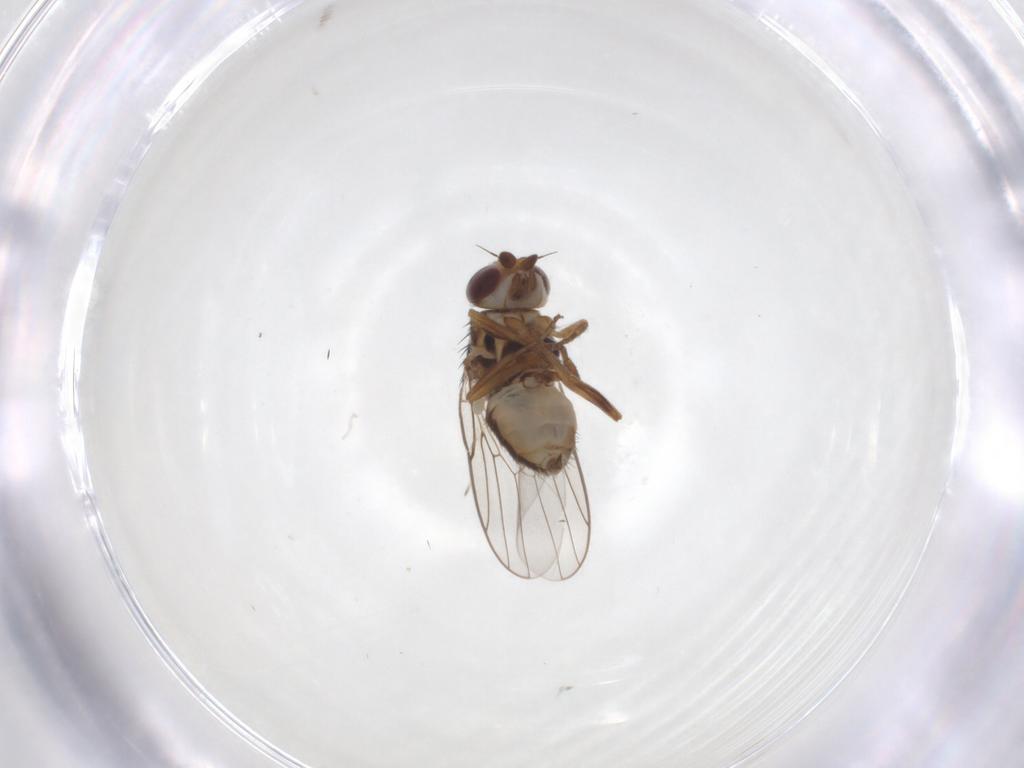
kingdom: Animalia
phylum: Arthropoda
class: Insecta
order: Diptera
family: Chloropidae
